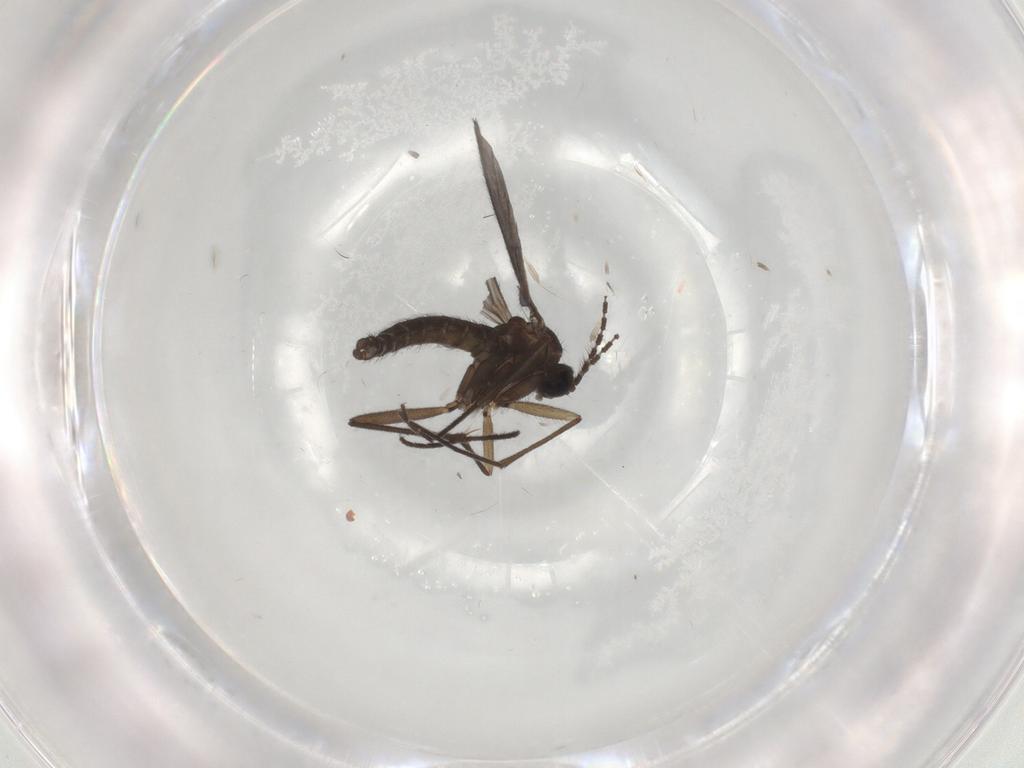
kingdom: Animalia
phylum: Arthropoda
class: Insecta
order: Diptera
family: Sciaridae
